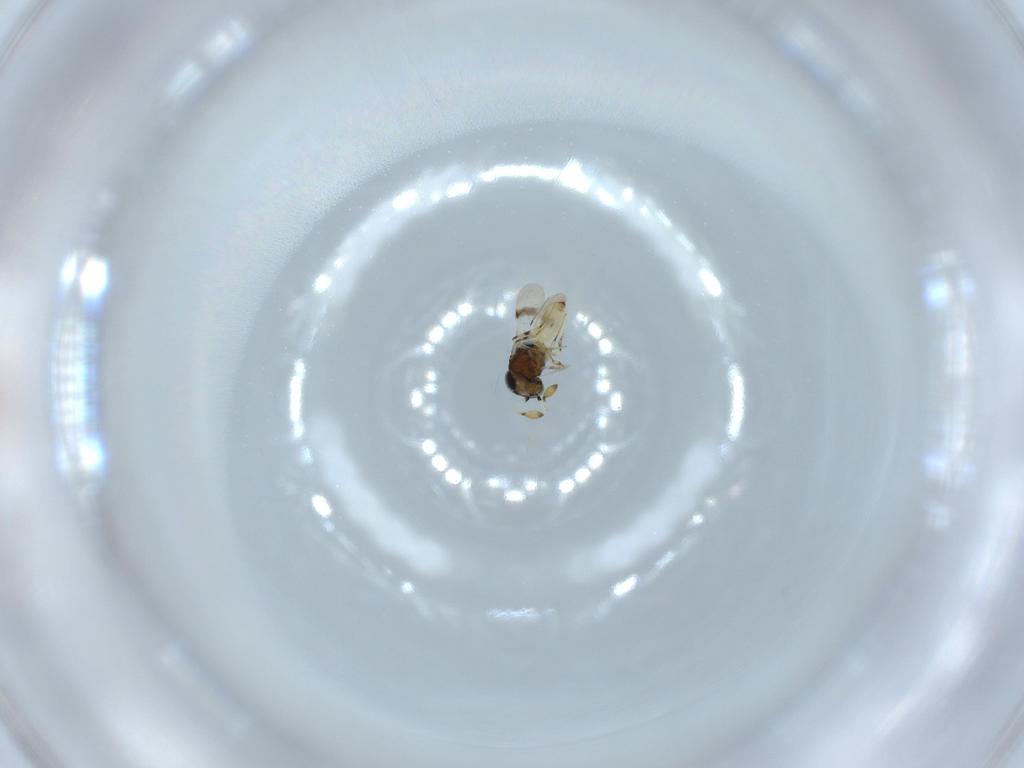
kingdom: Animalia
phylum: Arthropoda
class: Insecta
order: Hymenoptera
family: Scelionidae
